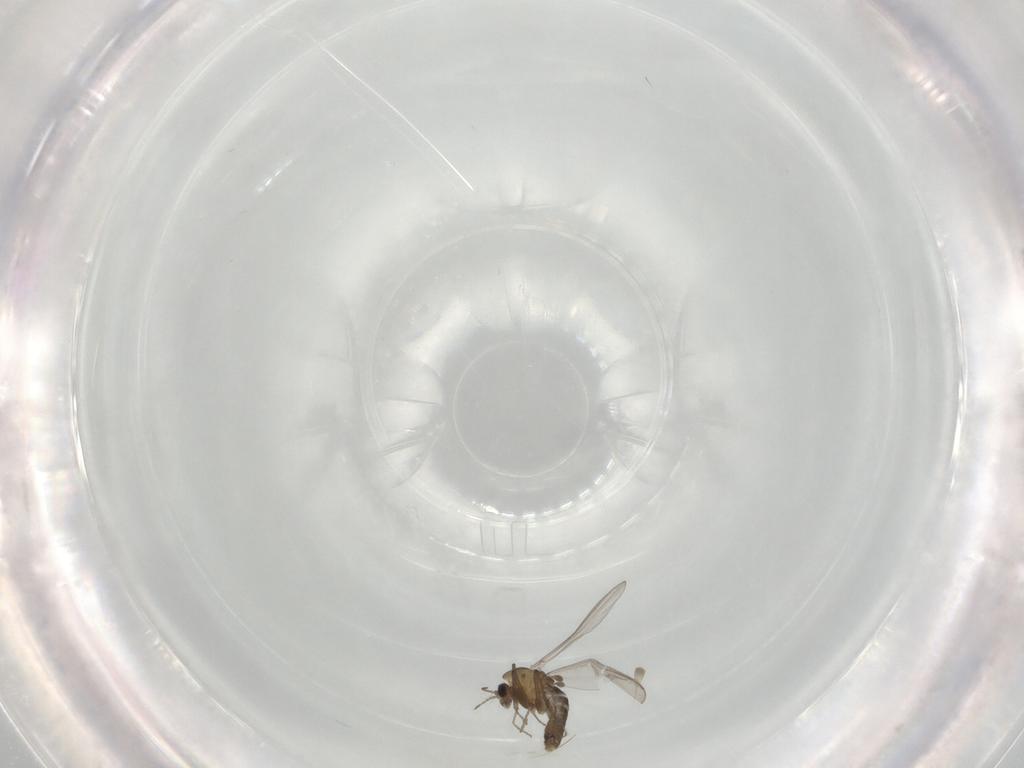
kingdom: Animalia
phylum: Arthropoda
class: Insecta
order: Diptera
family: Chironomidae
